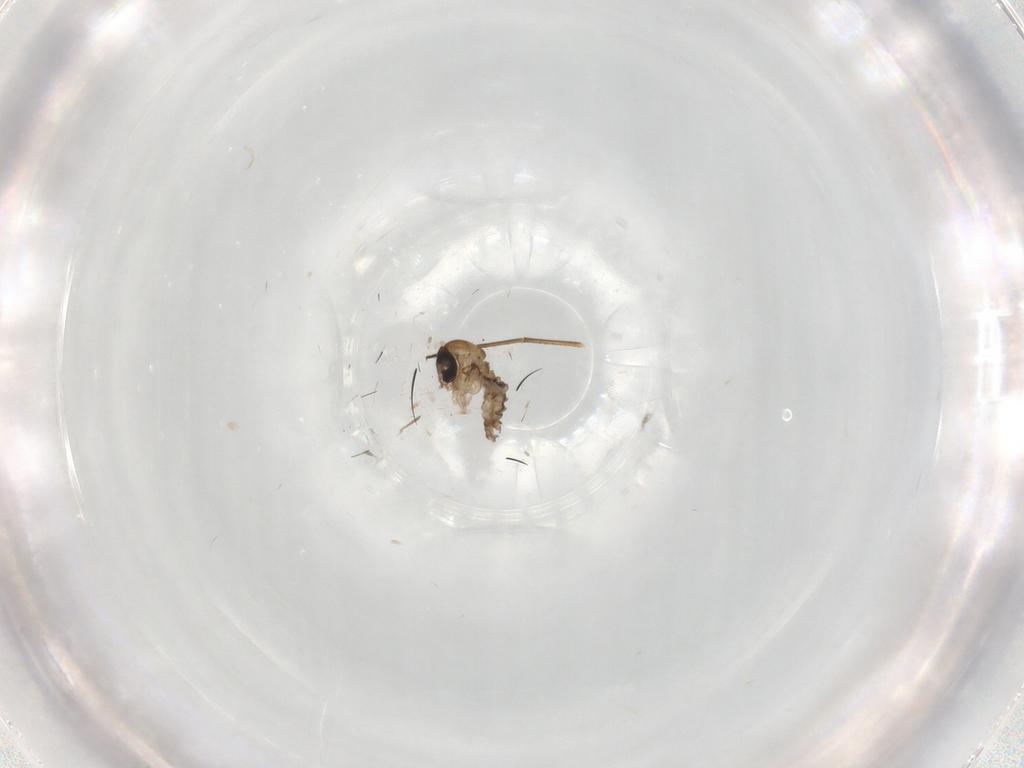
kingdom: Animalia
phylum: Arthropoda
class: Insecta
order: Diptera
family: Psychodidae
